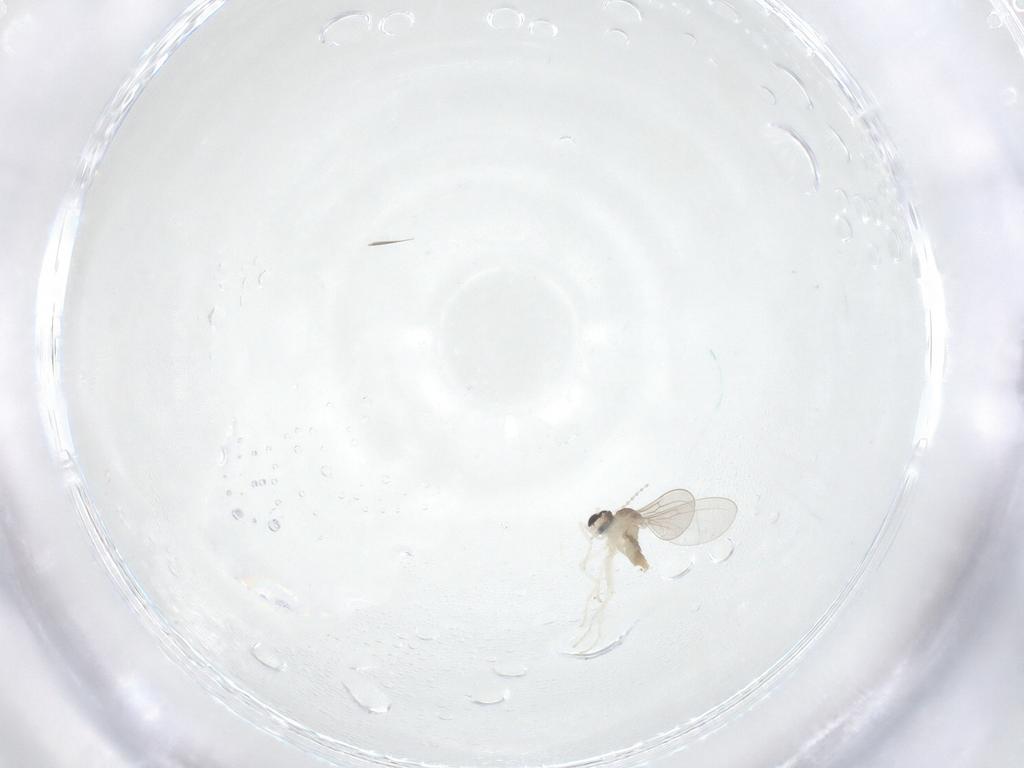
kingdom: Animalia
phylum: Arthropoda
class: Insecta
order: Diptera
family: Cecidomyiidae
